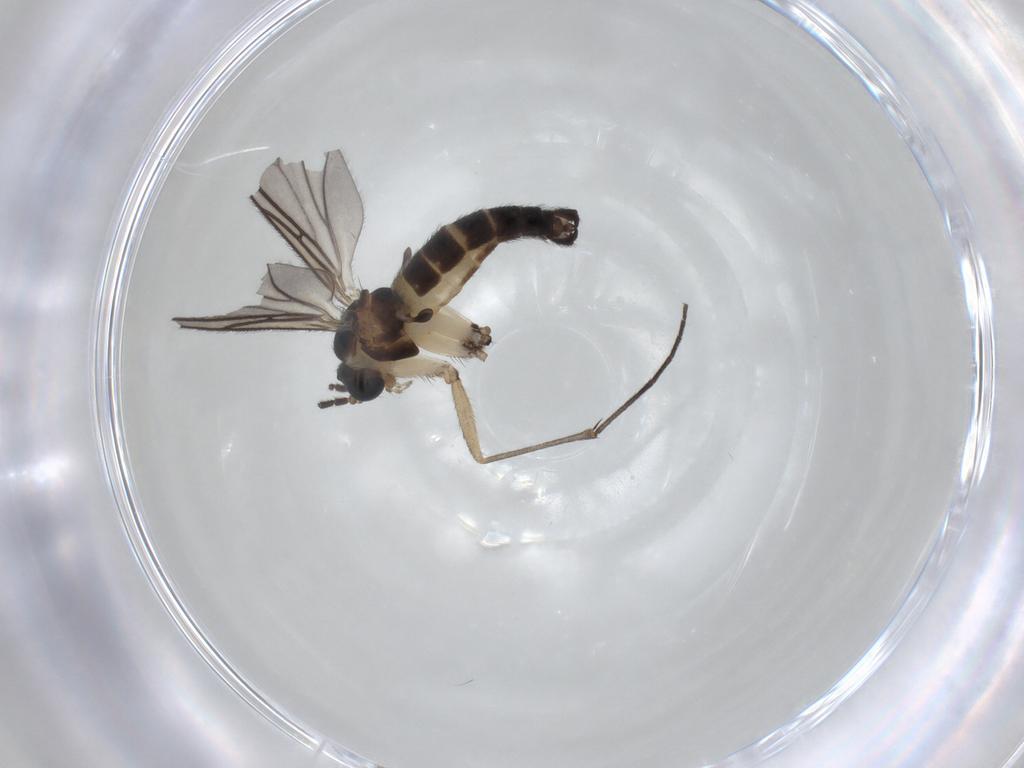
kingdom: Animalia
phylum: Arthropoda
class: Insecta
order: Diptera
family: Sciaridae
